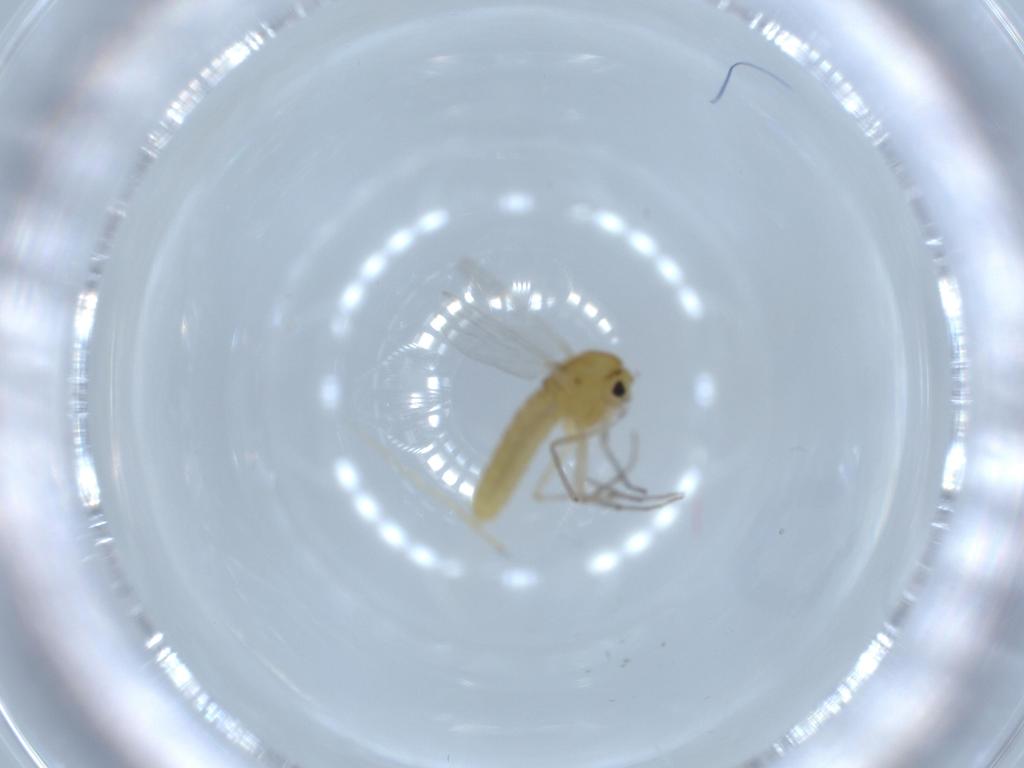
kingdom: Animalia
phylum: Arthropoda
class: Insecta
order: Diptera
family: Chironomidae
